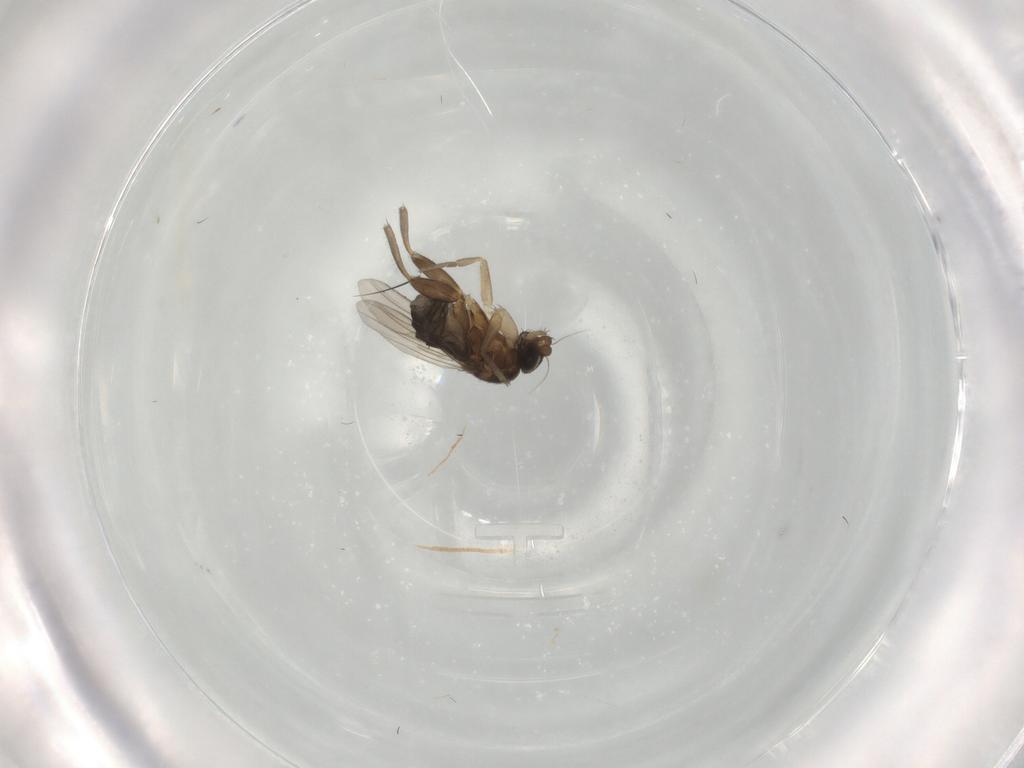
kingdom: Animalia
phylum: Arthropoda
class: Insecta
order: Diptera
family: Phoridae
